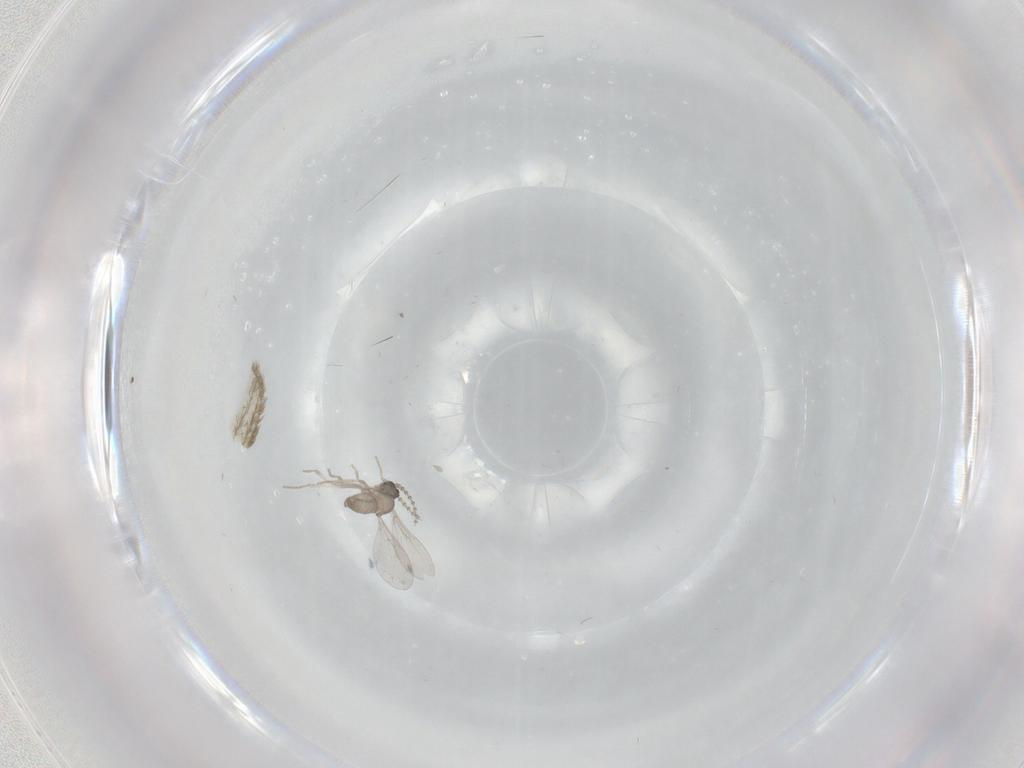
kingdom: Animalia
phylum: Arthropoda
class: Insecta
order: Diptera
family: Cecidomyiidae
